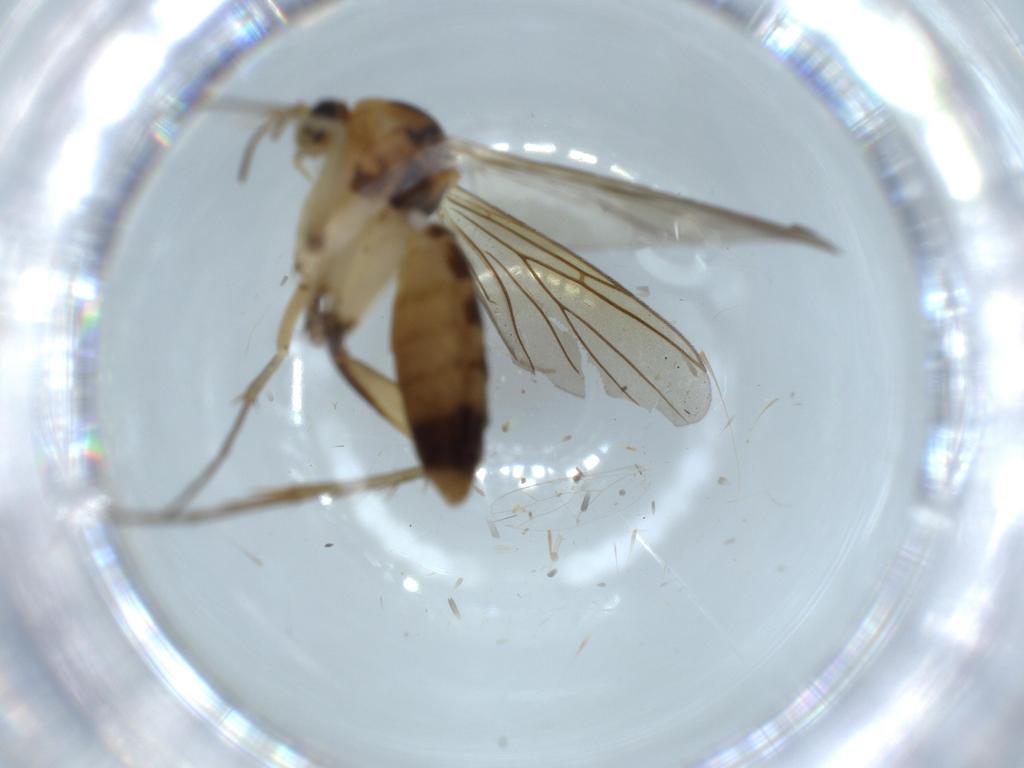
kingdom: Animalia
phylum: Arthropoda
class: Insecta
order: Diptera
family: Mycetophilidae
